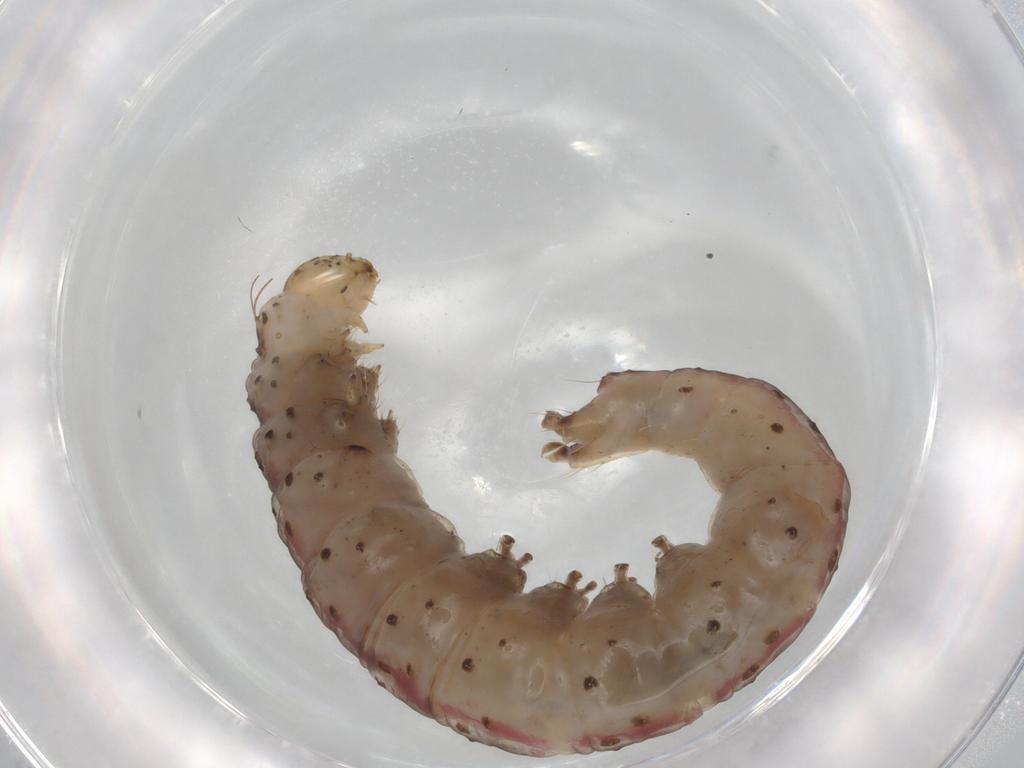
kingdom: Animalia
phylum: Arthropoda
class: Insecta
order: Lepidoptera
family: Immidae
